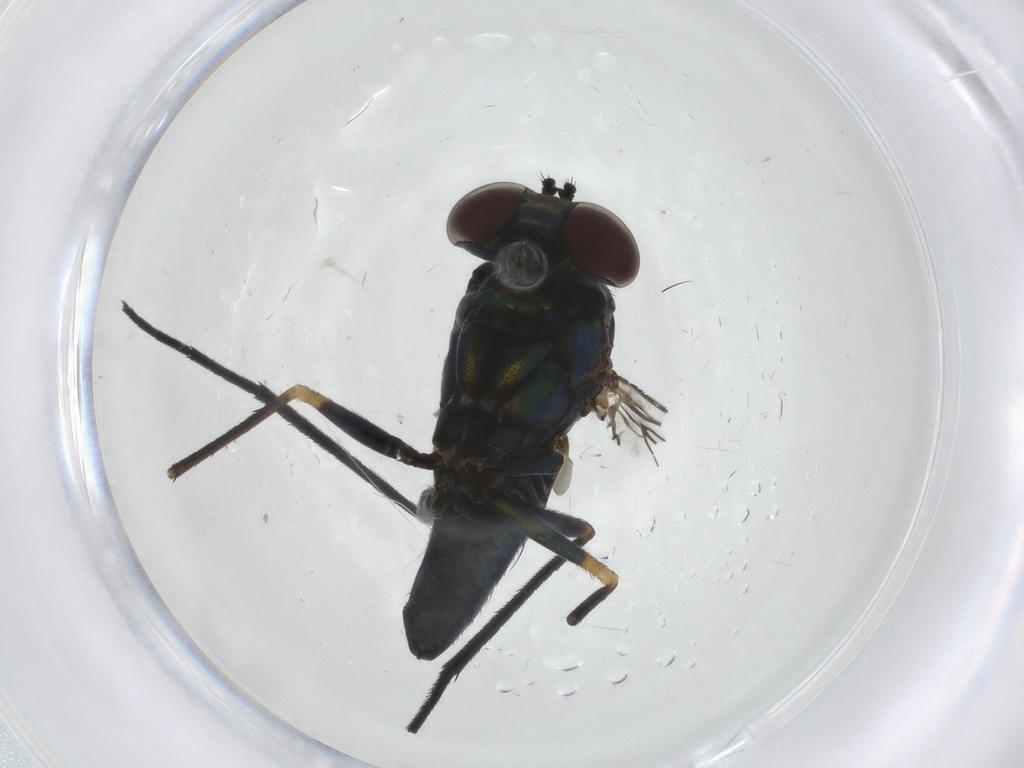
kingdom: Animalia
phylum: Arthropoda
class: Insecta
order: Diptera
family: Dolichopodidae
